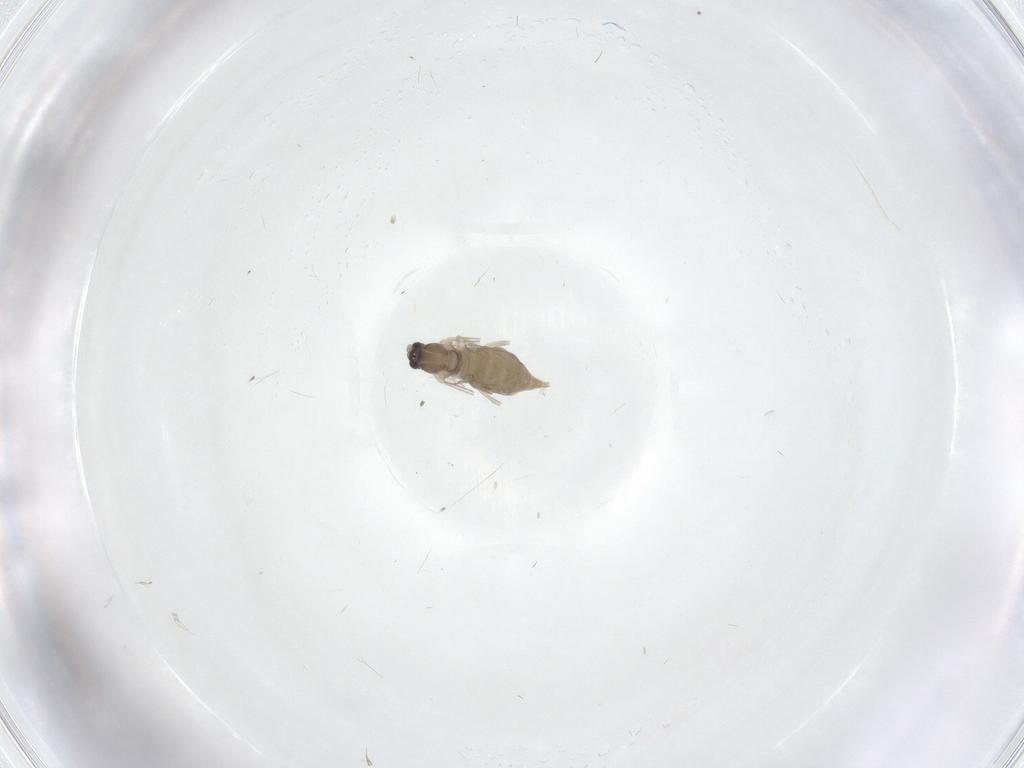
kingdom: Animalia
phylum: Arthropoda
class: Insecta
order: Diptera
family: Cecidomyiidae
